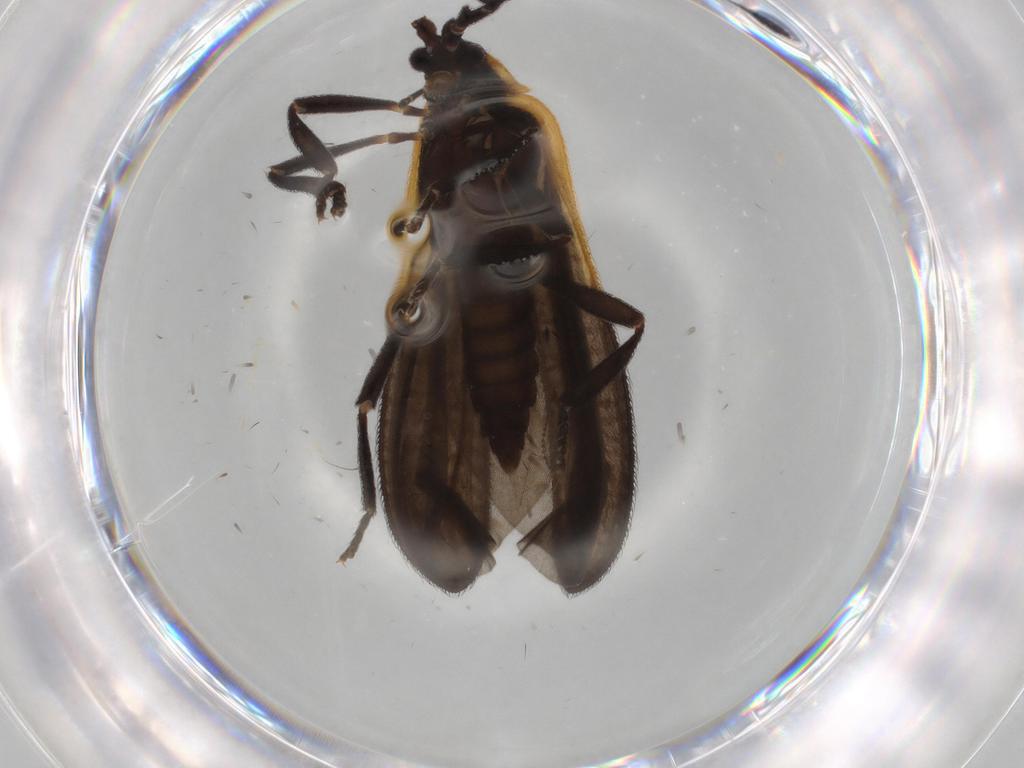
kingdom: Animalia
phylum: Arthropoda
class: Insecta
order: Coleoptera
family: Lycidae
